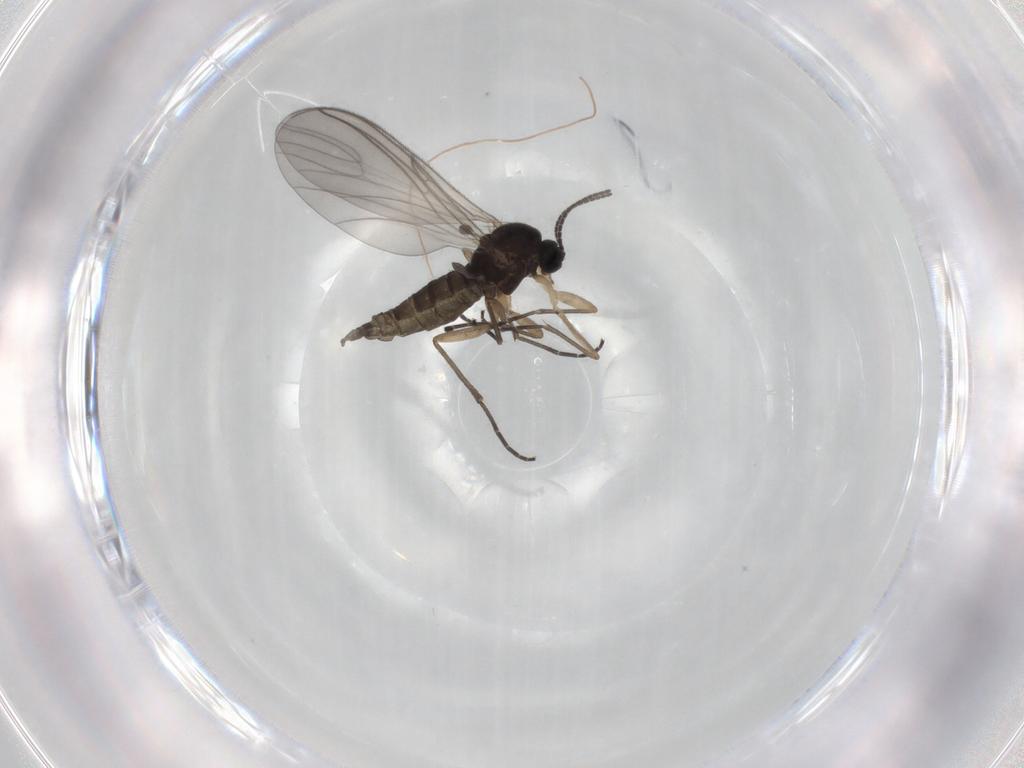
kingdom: Animalia
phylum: Arthropoda
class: Insecta
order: Diptera
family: Sciaridae
